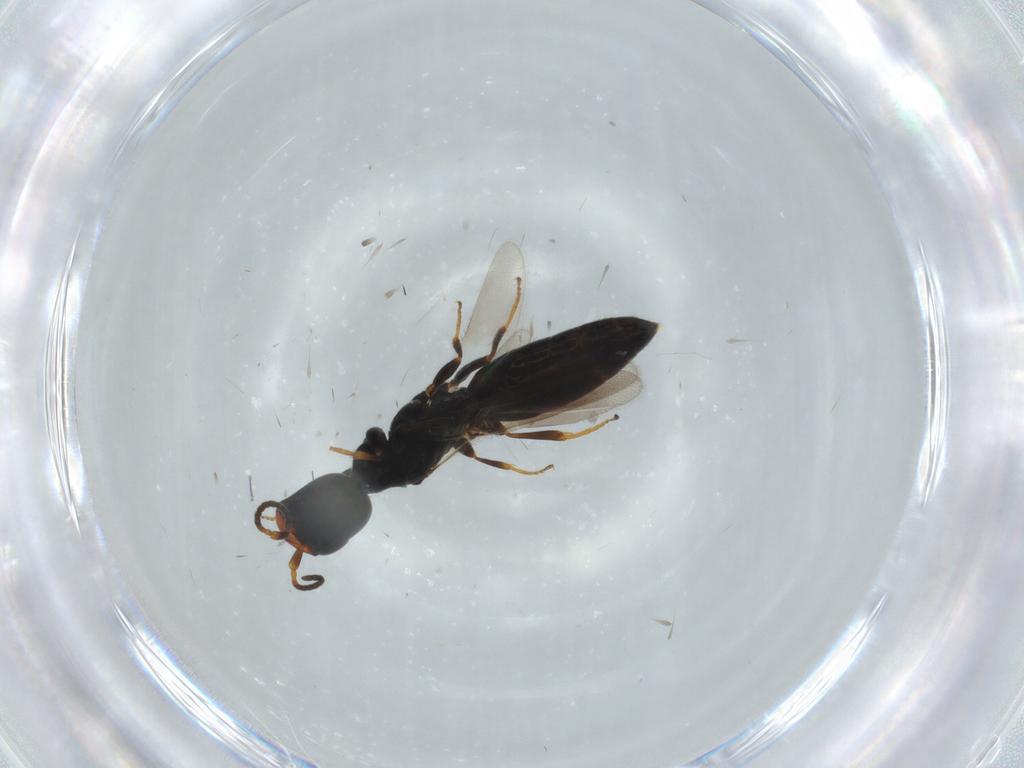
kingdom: Animalia
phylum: Arthropoda
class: Insecta
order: Hymenoptera
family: Bethylidae
